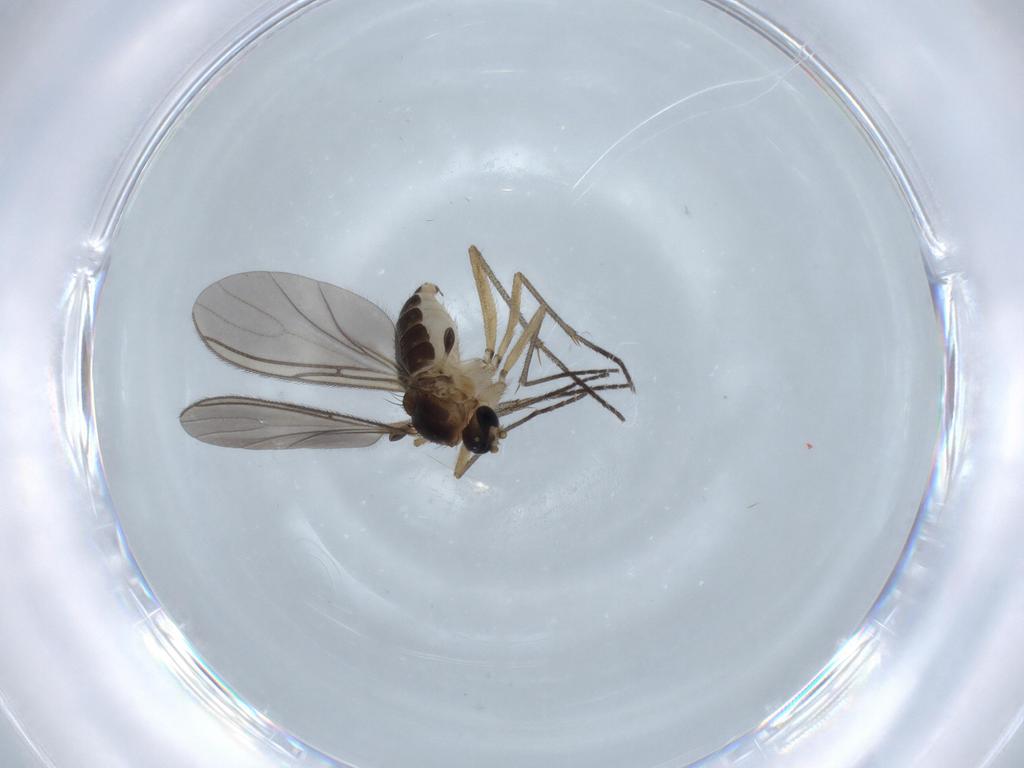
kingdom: Animalia
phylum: Arthropoda
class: Insecta
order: Diptera
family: Sciaridae
